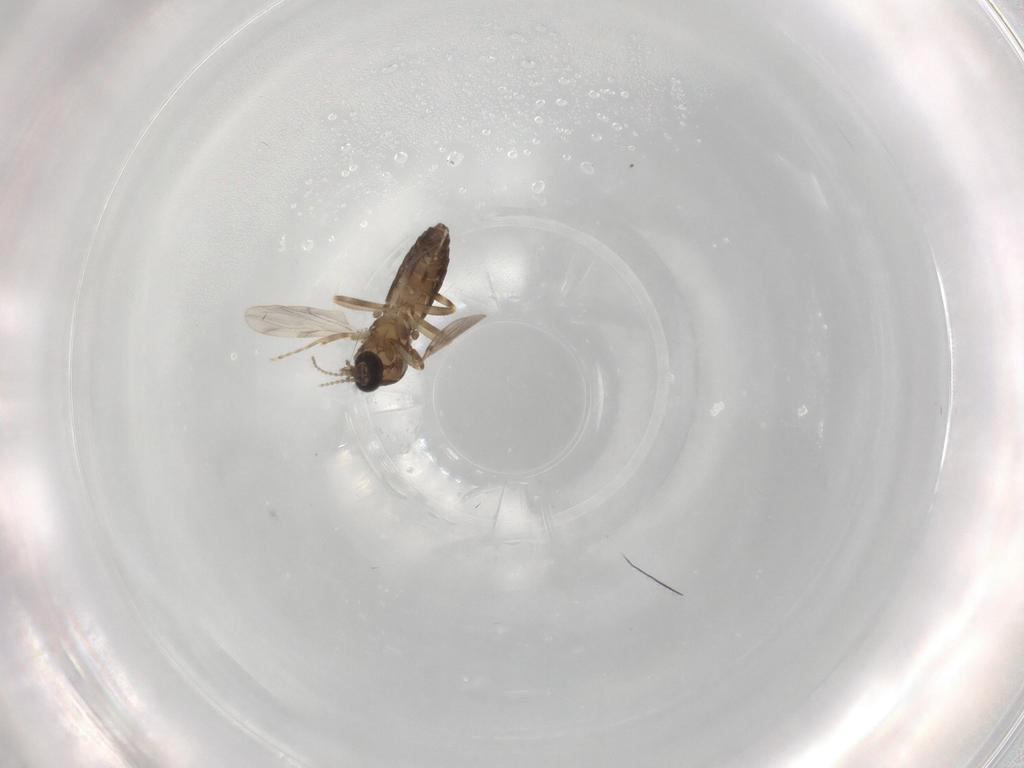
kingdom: Animalia
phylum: Arthropoda
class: Insecta
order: Diptera
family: Ceratopogonidae
